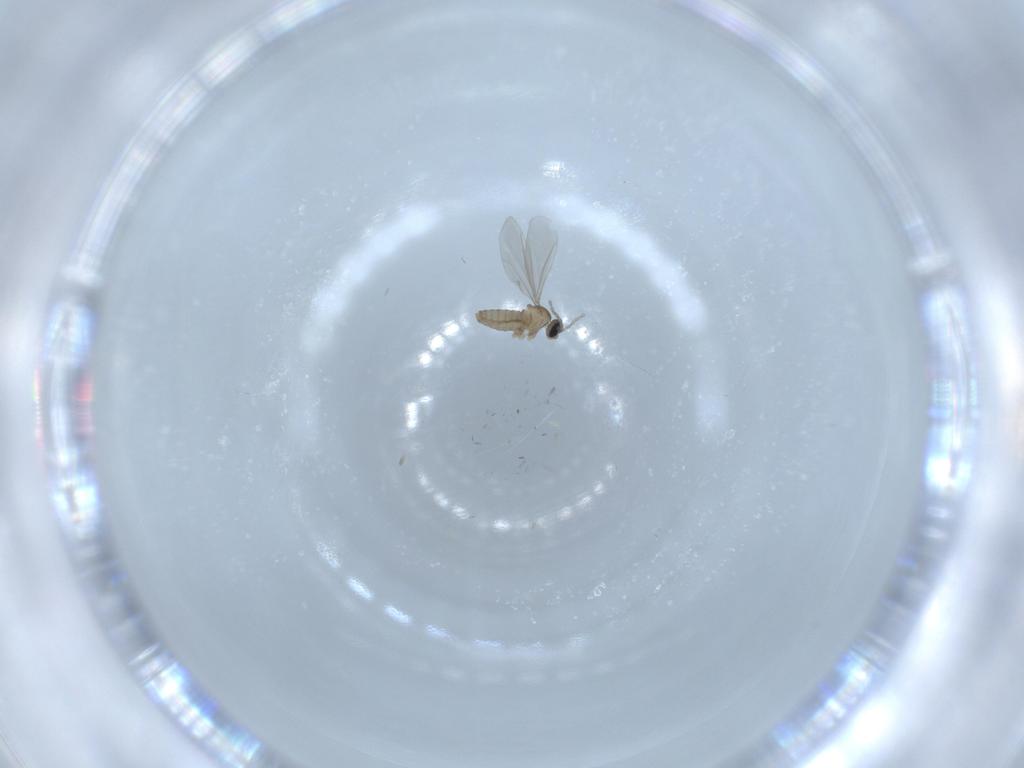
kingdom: Animalia
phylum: Arthropoda
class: Insecta
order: Diptera
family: Cecidomyiidae
